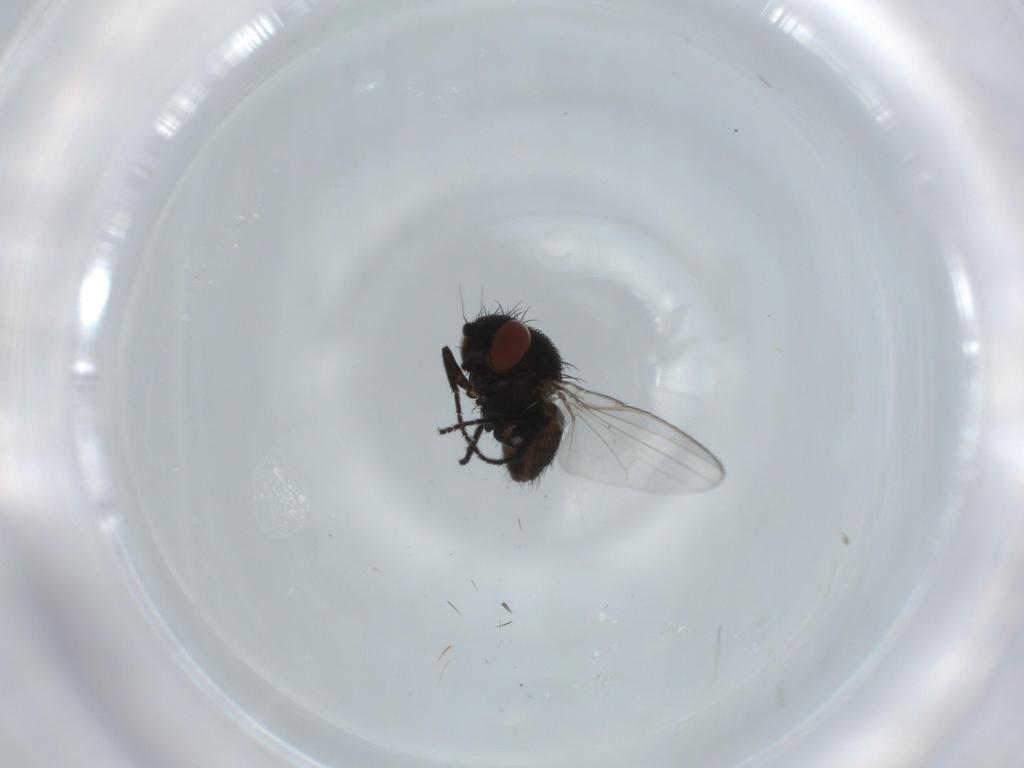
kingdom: Animalia
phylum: Arthropoda
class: Insecta
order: Diptera
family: Milichiidae
